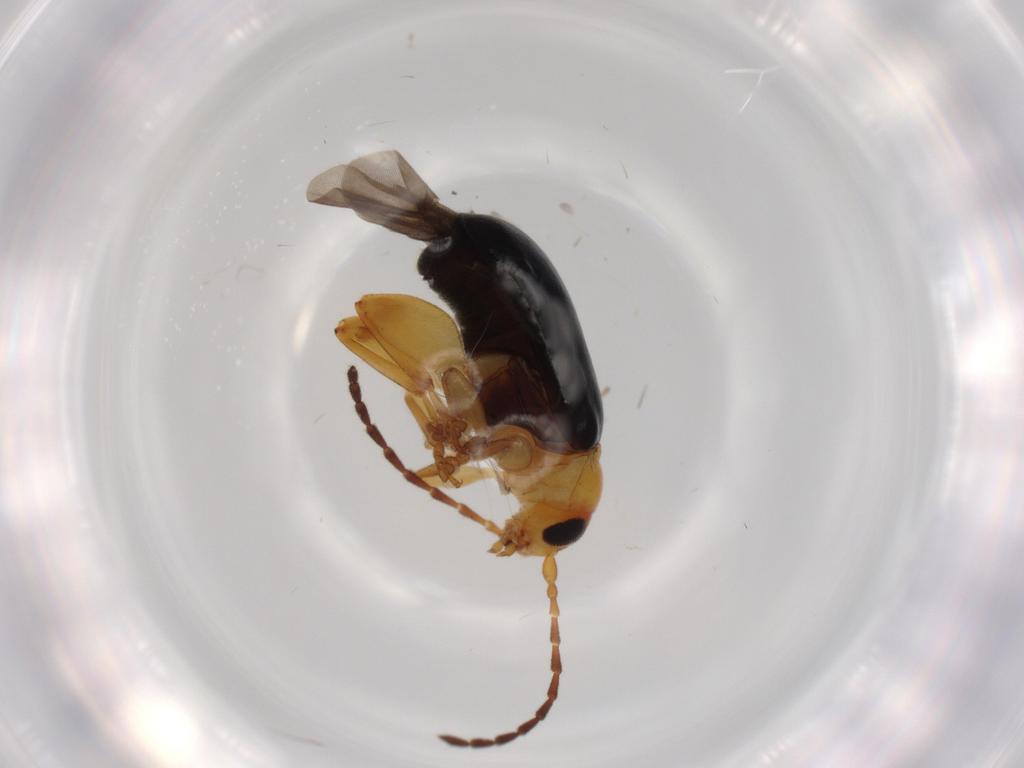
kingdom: Animalia
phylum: Arthropoda
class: Insecta
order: Coleoptera
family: Chrysomelidae
